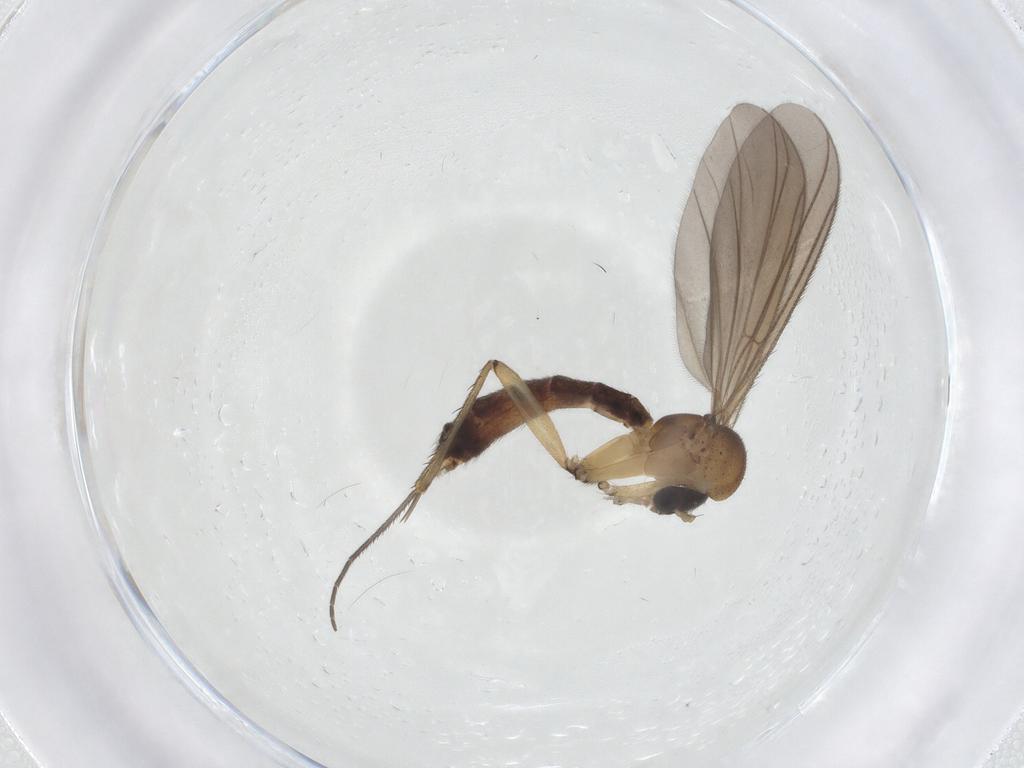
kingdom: Animalia
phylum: Arthropoda
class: Insecta
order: Diptera
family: Mycetophilidae
